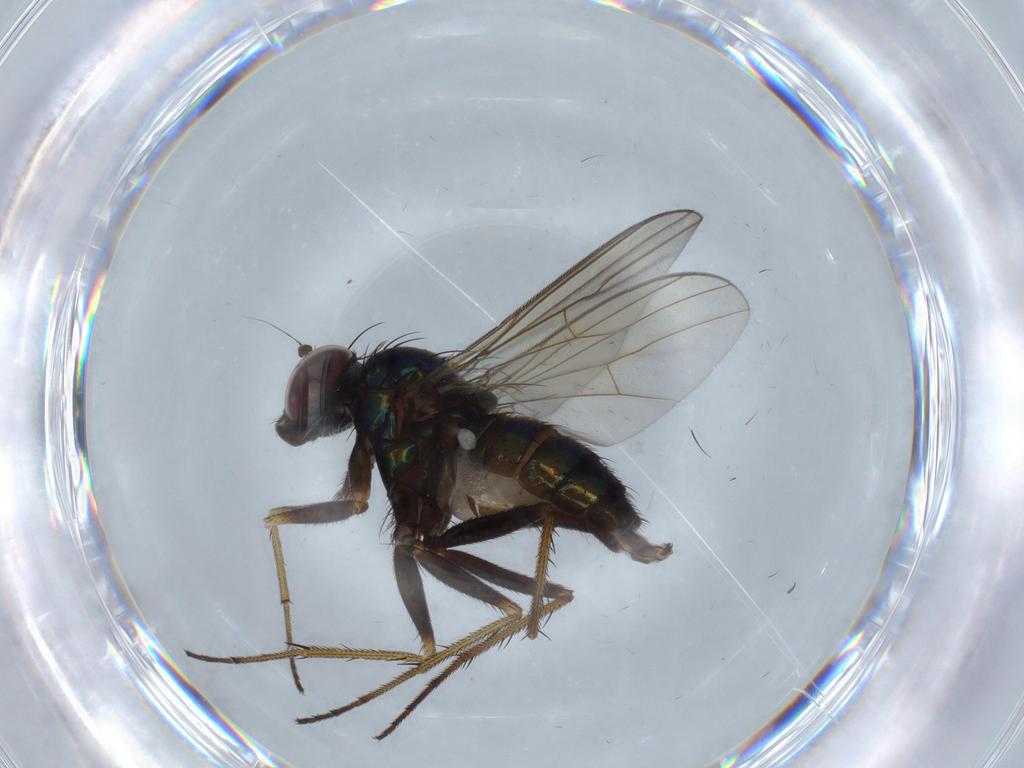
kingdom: Animalia
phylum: Arthropoda
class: Insecta
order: Diptera
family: Dolichopodidae
